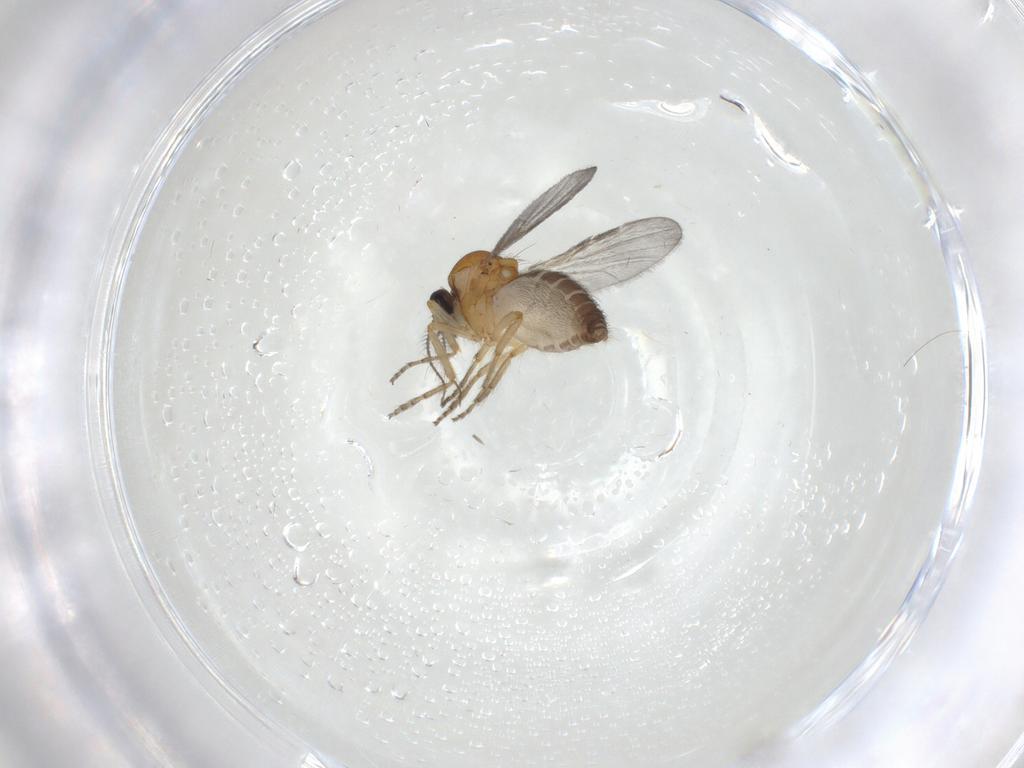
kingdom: Animalia
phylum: Arthropoda
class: Insecta
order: Diptera
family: Ceratopogonidae
